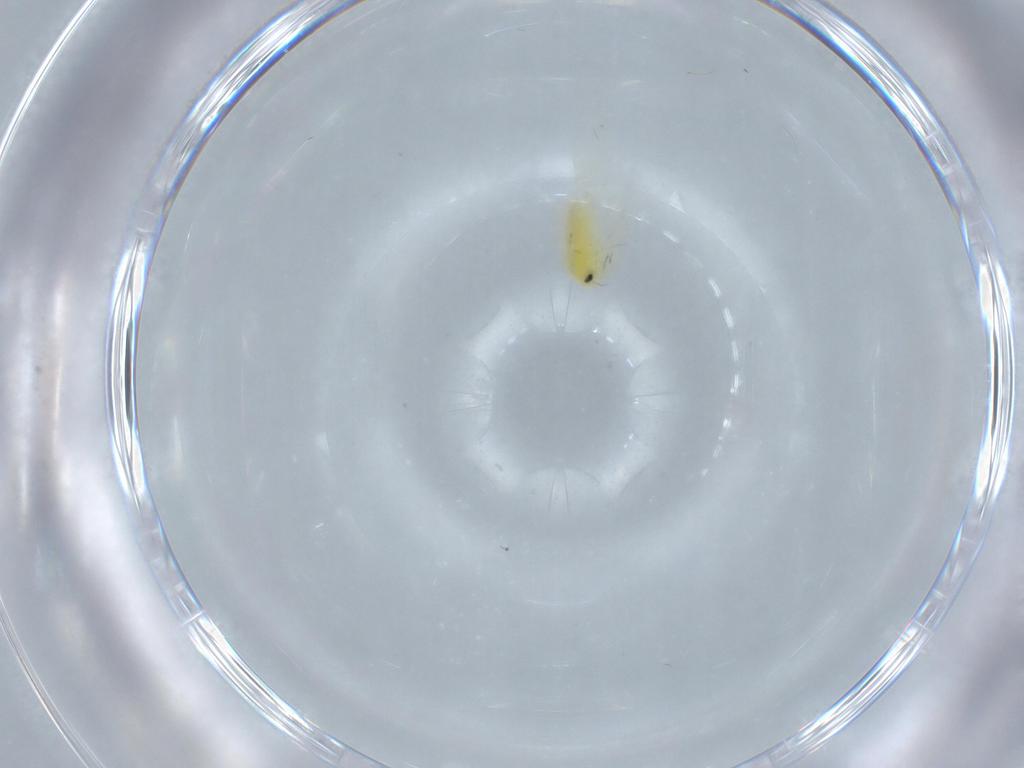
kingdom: Animalia
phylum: Arthropoda
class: Insecta
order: Hemiptera
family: Aleyrodidae
